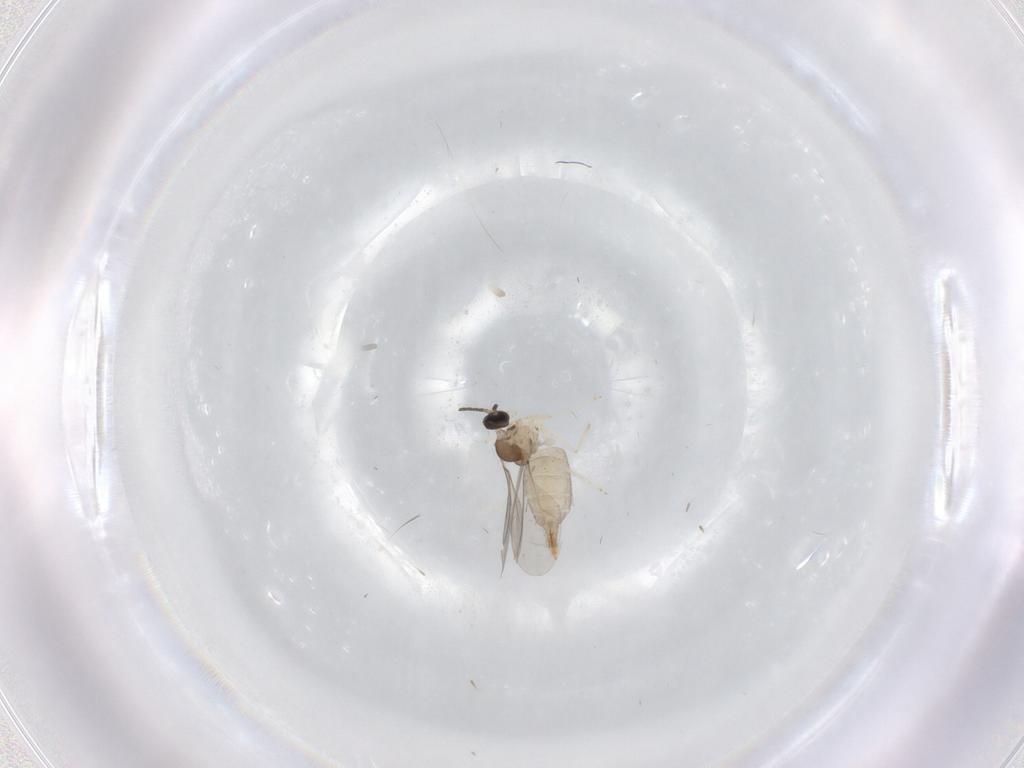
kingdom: Animalia
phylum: Arthropoda
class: Insecta
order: Diptera
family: Cecidomyiidae
